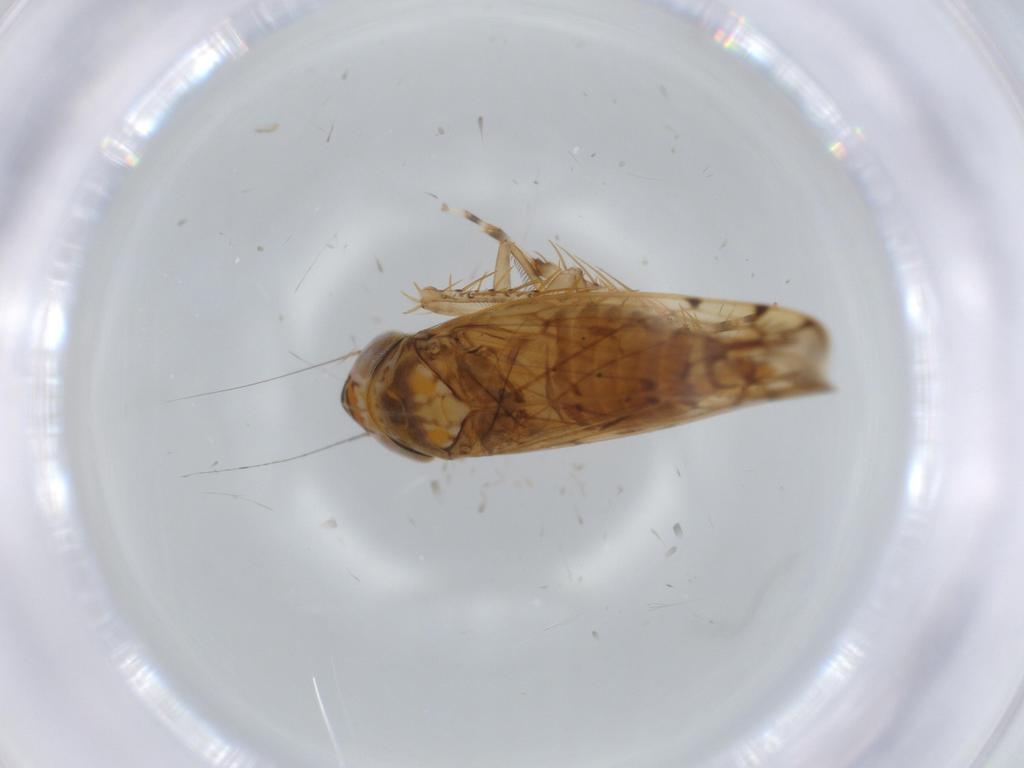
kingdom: Animalia
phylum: Arthropoda
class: Insecta
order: Hemiptera
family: Cicadellidae
